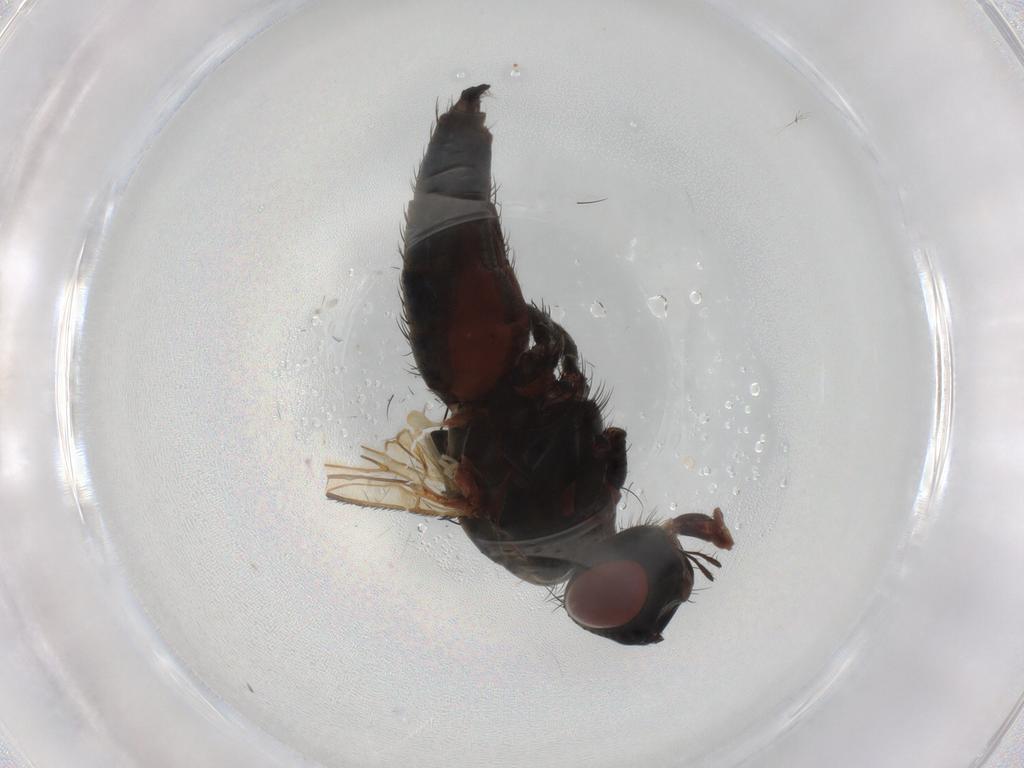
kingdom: Animalia
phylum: Arthropoda
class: Insecta
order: Diptera
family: Anthomyiidae
